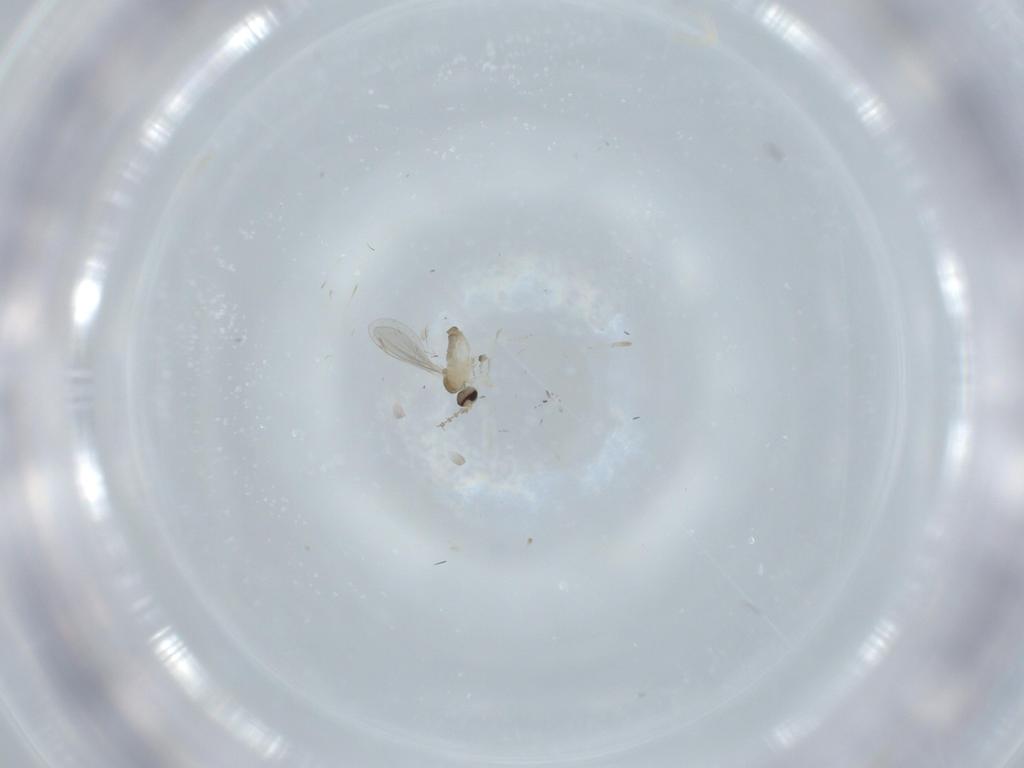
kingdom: Animalia
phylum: Arthropoda
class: Insecta
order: Diptera
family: Cecidomyiidae
